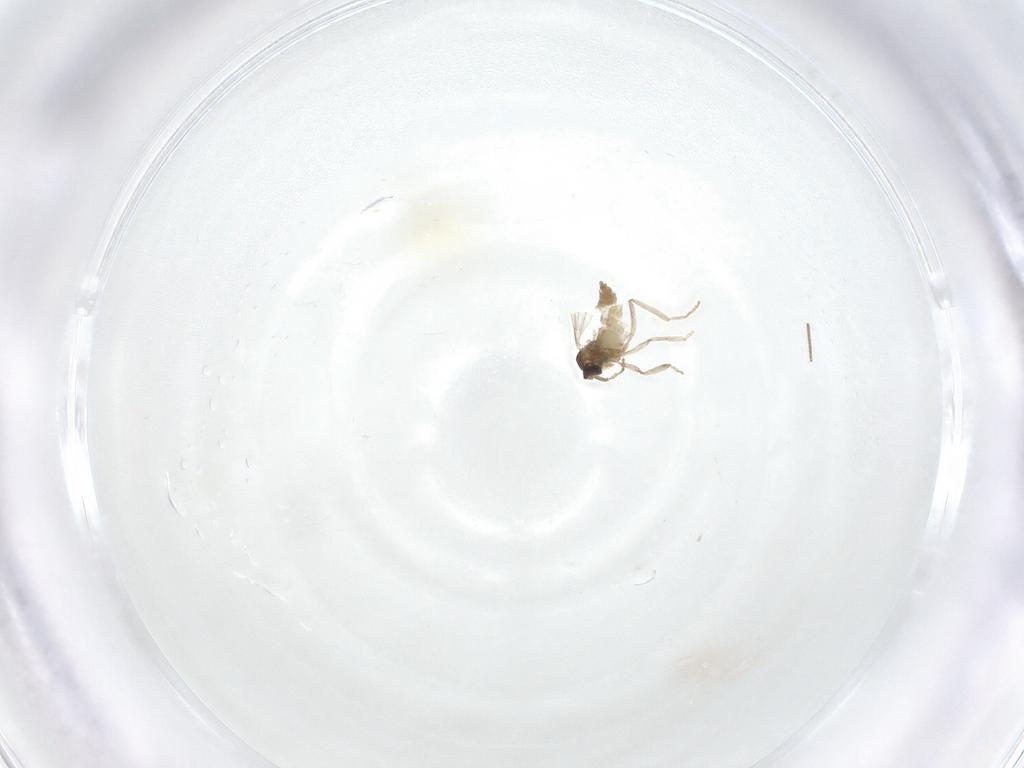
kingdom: Animalia
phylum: Arthropoda
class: Insecta
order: Diptera
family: Cecidomyiidae
